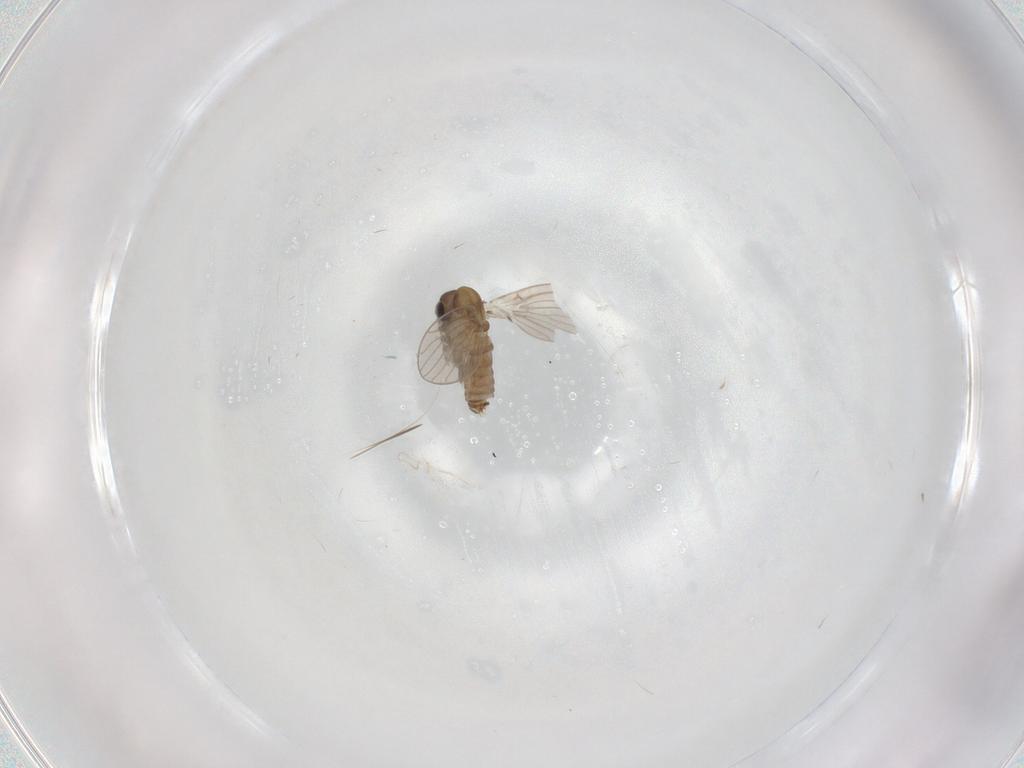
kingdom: Animalia
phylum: Arthropoda
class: Insecta
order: Diptera
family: Psychodidae
